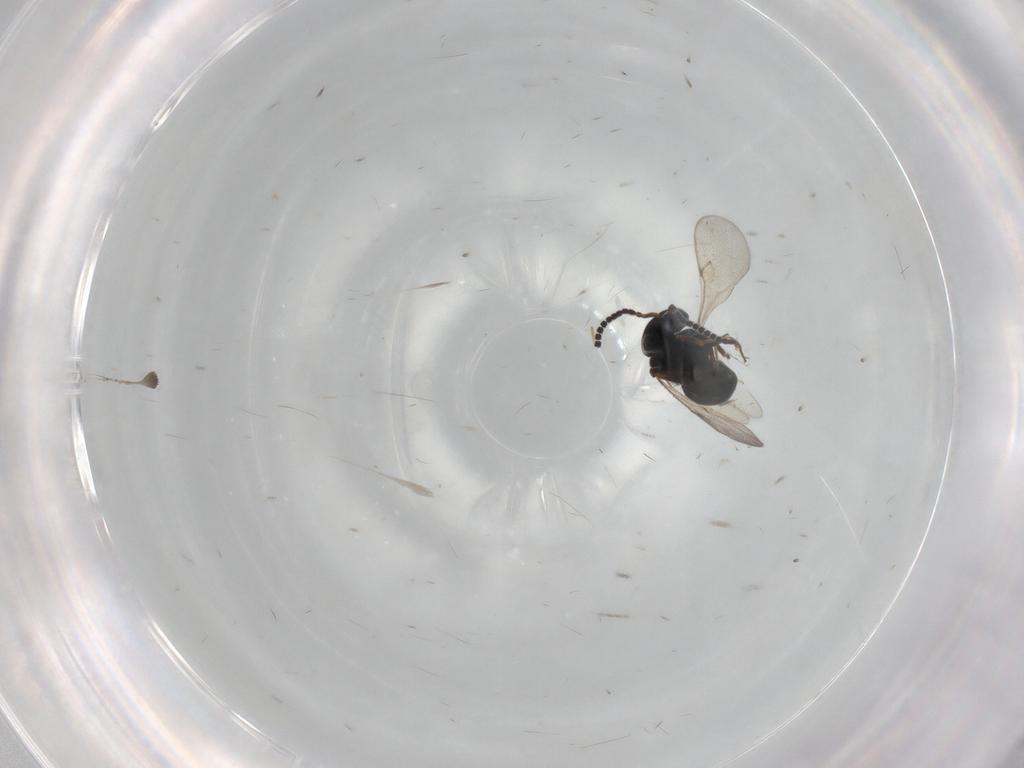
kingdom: Animalia
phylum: Arthropoda
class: Insecta
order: Hymenoptera
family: Scelionidae
